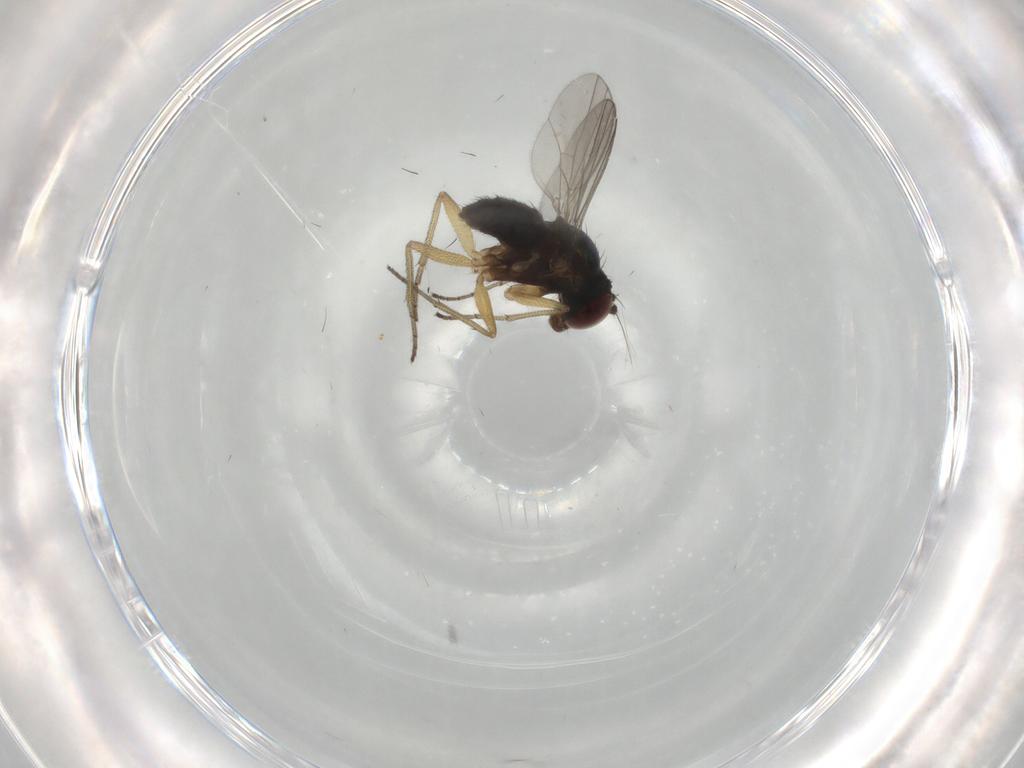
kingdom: Animalia
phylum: Arthropoda
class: Insecta
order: Diptera
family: Dolichopodidae
